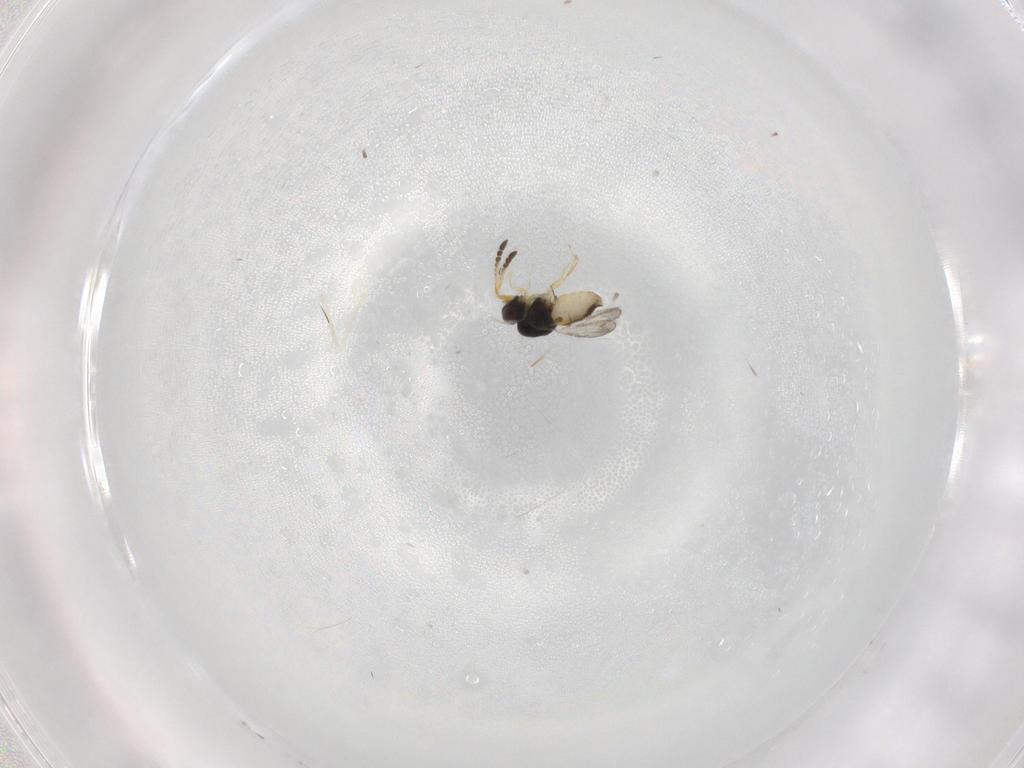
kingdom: Animalia
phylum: Arthropoda
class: Insecta
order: Hymenoptera
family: Ceraphronidae
